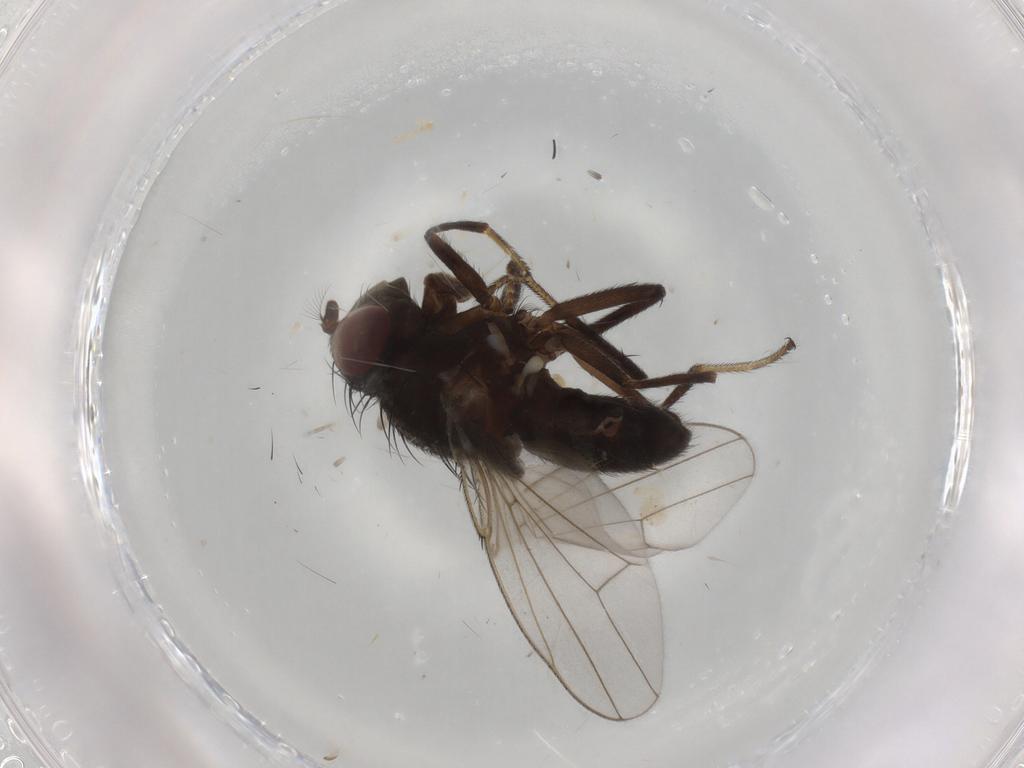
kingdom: Animalia
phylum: Arthropoda
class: Insecta
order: Diptera
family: Ephydridae
